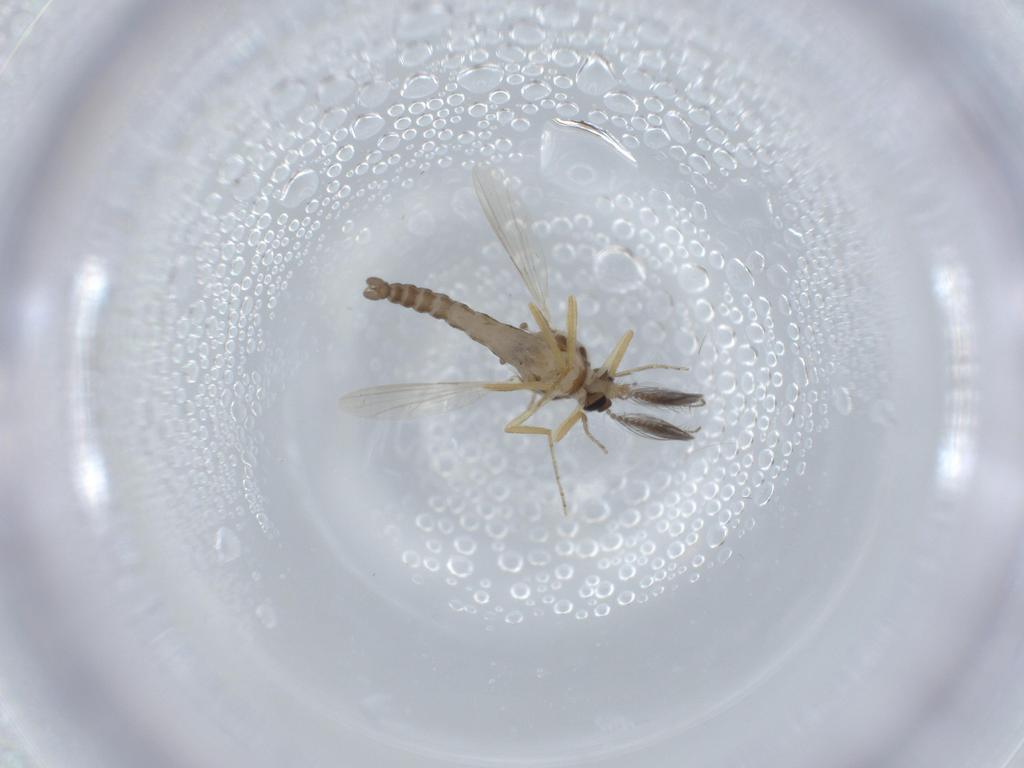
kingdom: Animalia
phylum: Arthropoda
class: Insecta
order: Diptera
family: Ceratopogonidae
